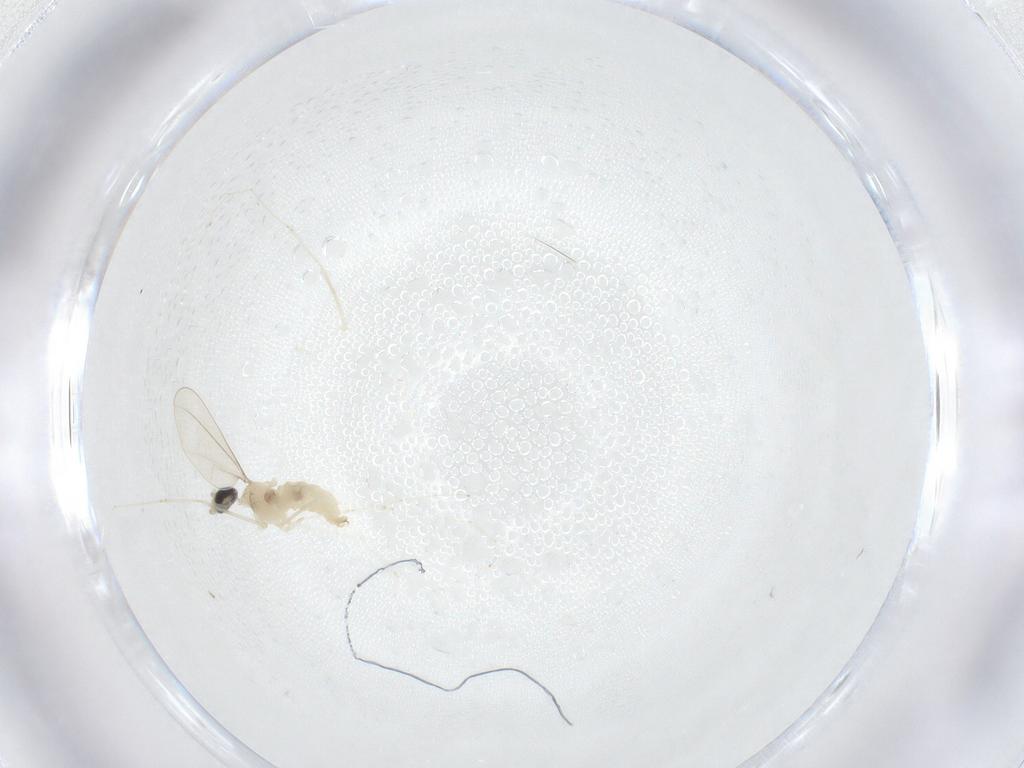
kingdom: Animalia
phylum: Arthropoda
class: Insecta
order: Diptera
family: Cecidomyiidae
